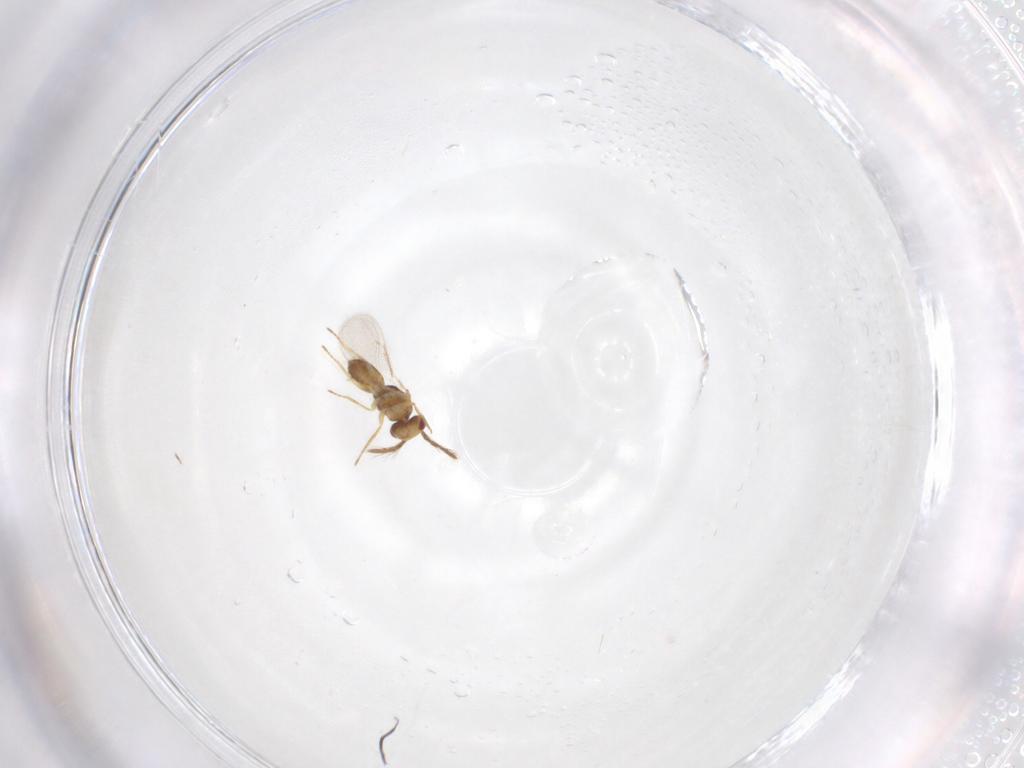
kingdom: Animalia
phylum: Arthropoda
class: Insecta
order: Hymenoptera
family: Eulophidae
